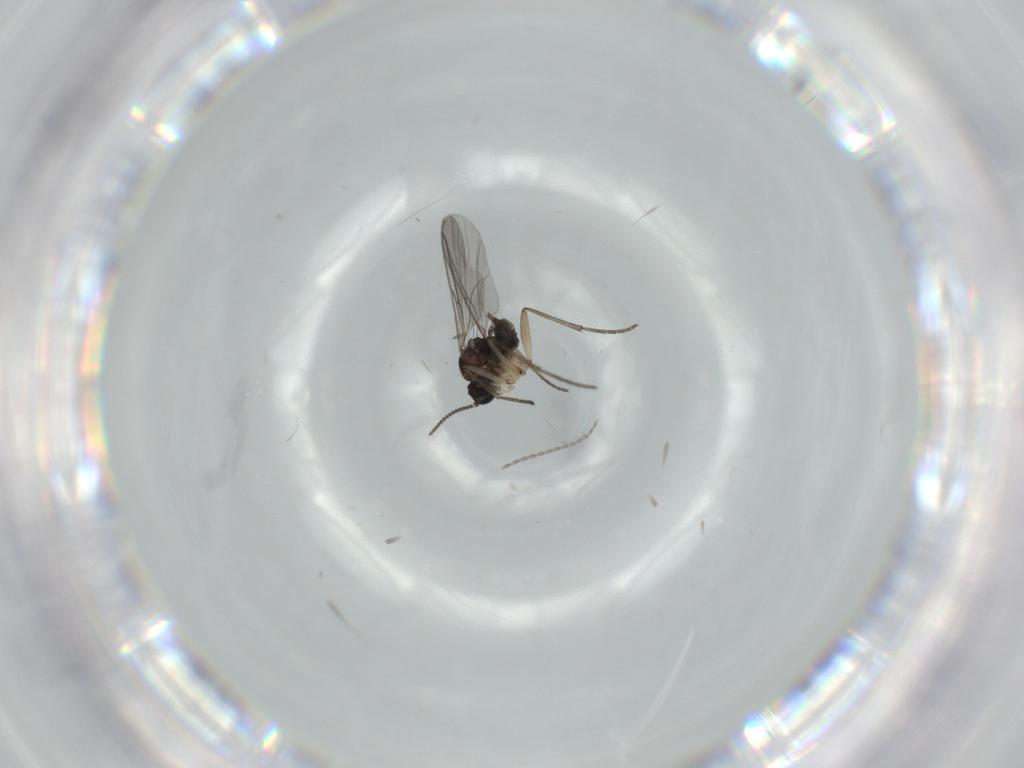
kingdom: Animalia
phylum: Arthropoda
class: Insecta
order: Diptera
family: Sciaridae
